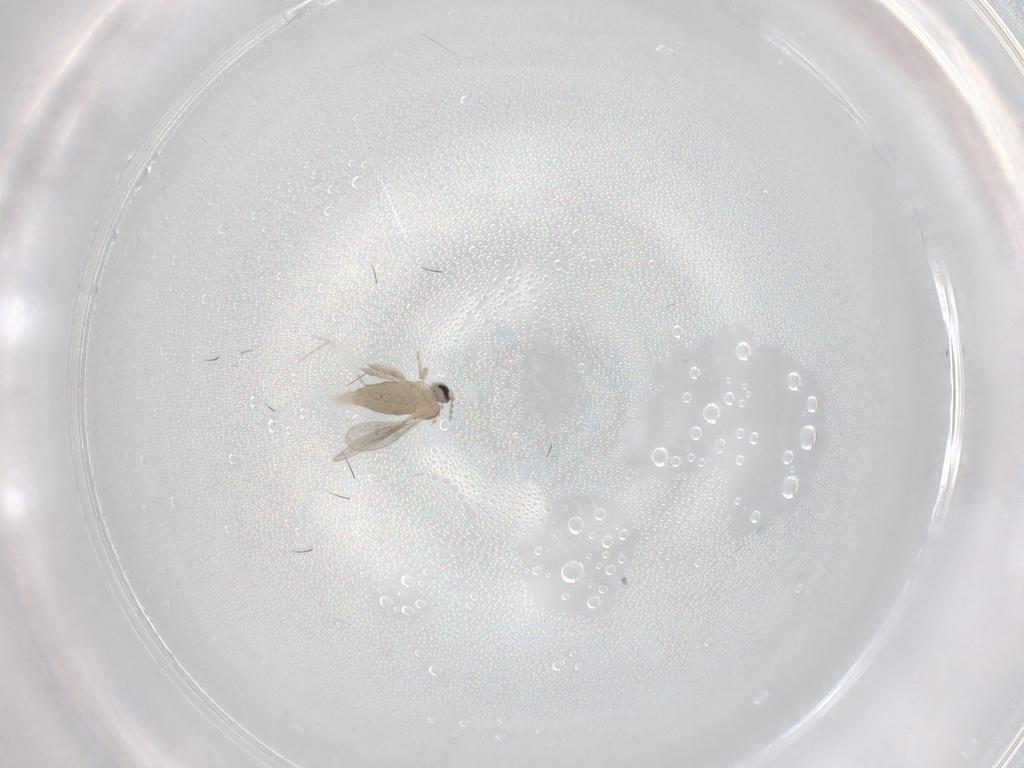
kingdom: Animalia
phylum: Arthropoda
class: Insecta
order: Diptera
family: Cecidomyiidae
